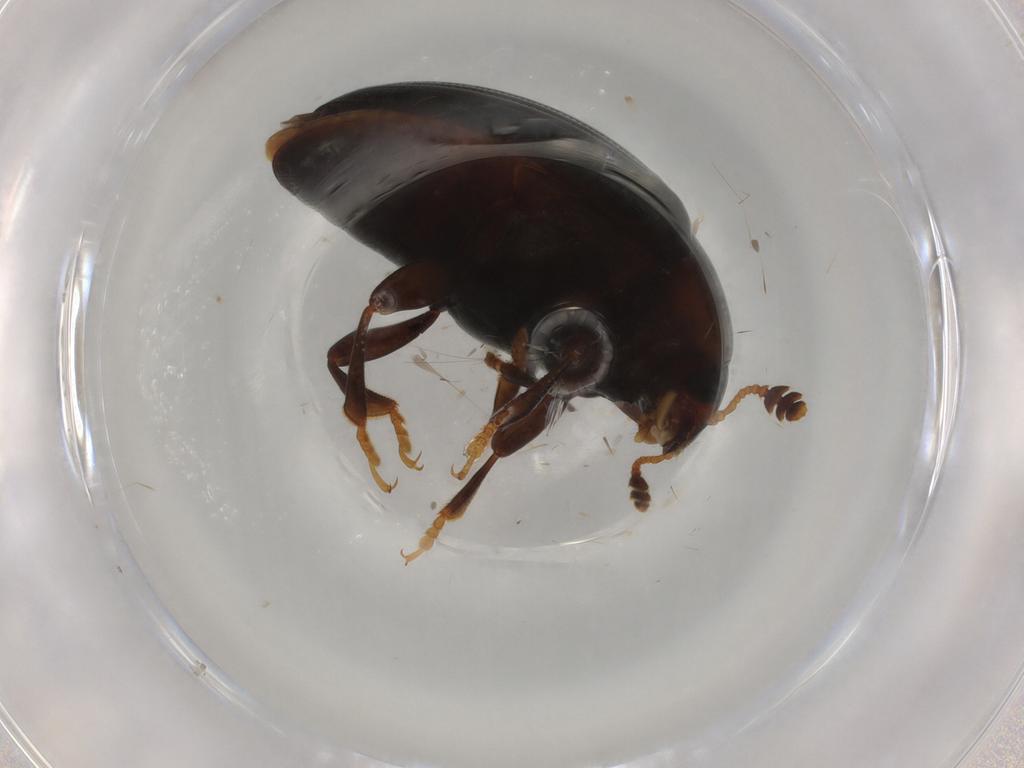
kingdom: Animalia
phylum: Arthropoda
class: Insecta
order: Coleoptera
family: Erotylidae
